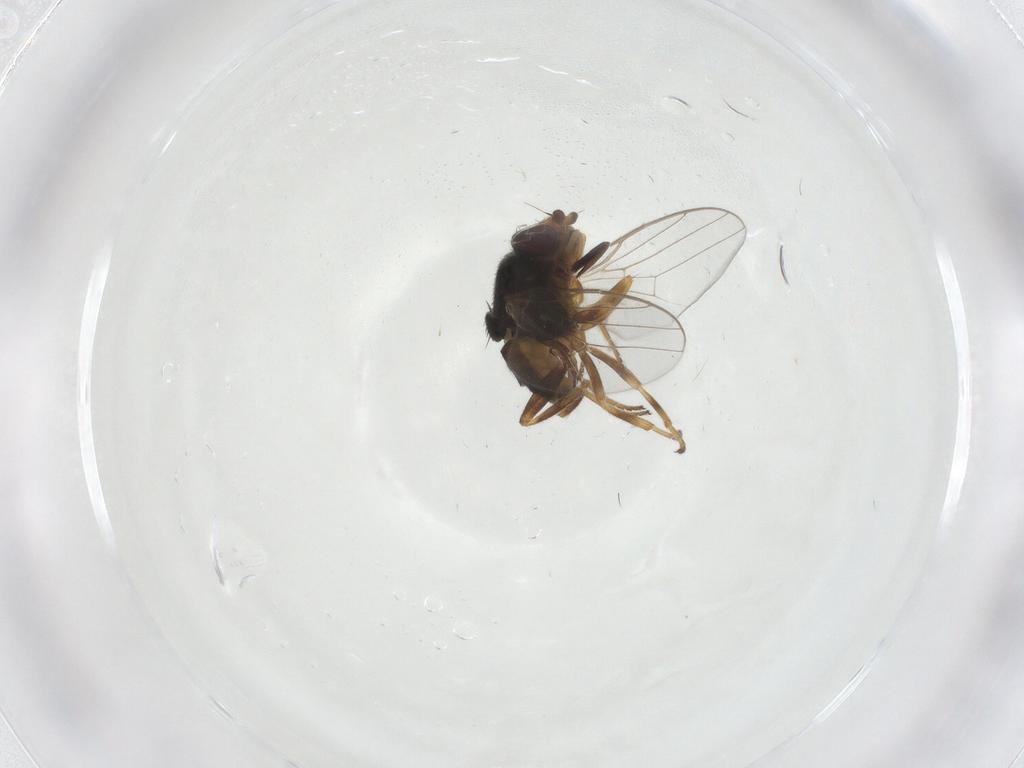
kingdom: Animalia
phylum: Arthropoda
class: Insecta
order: Diptera
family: Chloropidae
